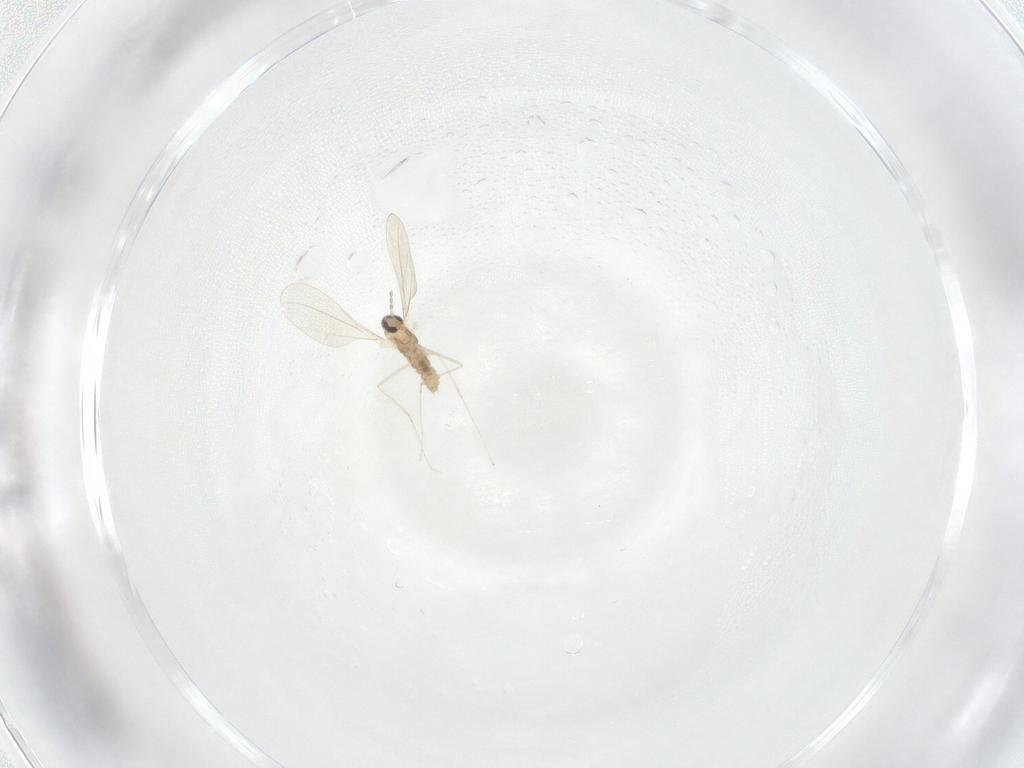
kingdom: Animalia
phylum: Arthropoda
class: Insecta
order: Diptera
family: Cecidomyiidae
